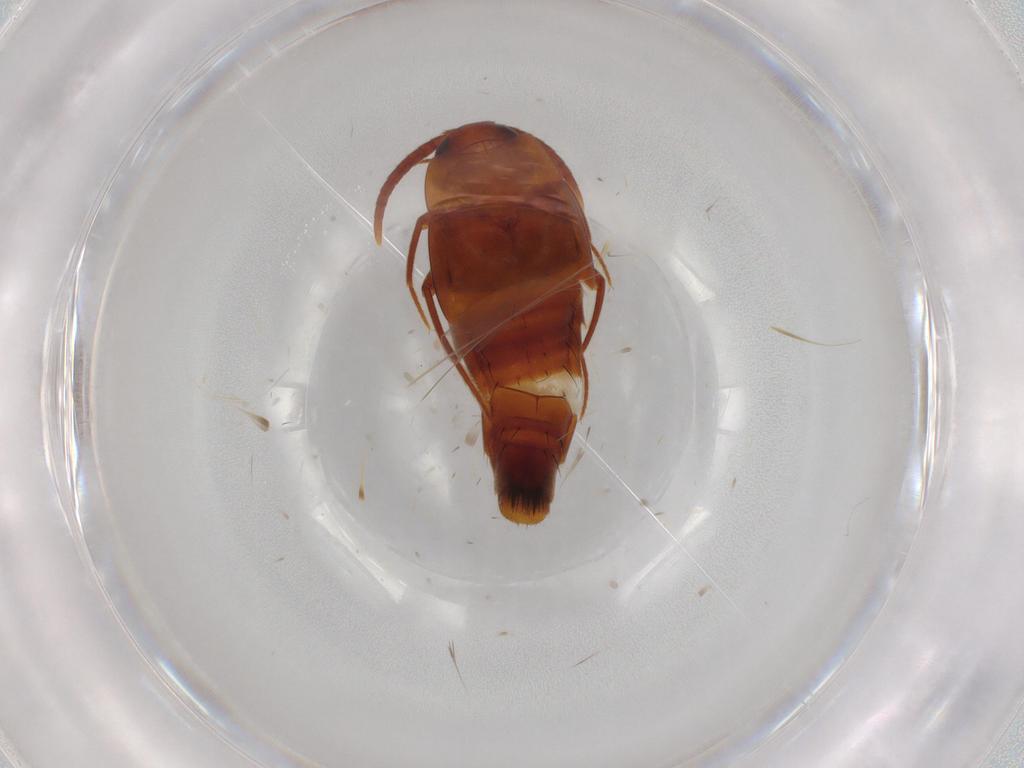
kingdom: Animalia
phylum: Arthropoda
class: Insecta
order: Coleoptera
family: Staphylinidae
